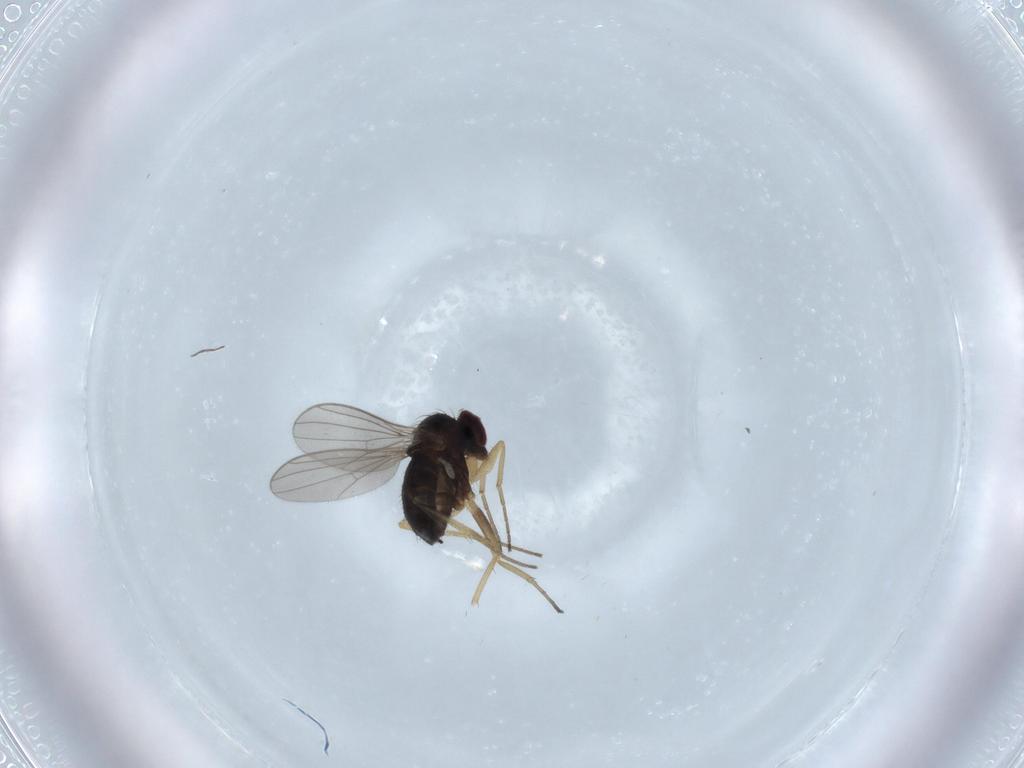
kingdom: Animalia
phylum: Arthropoda
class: Insecta
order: Diptera
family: Dolichopodidae
